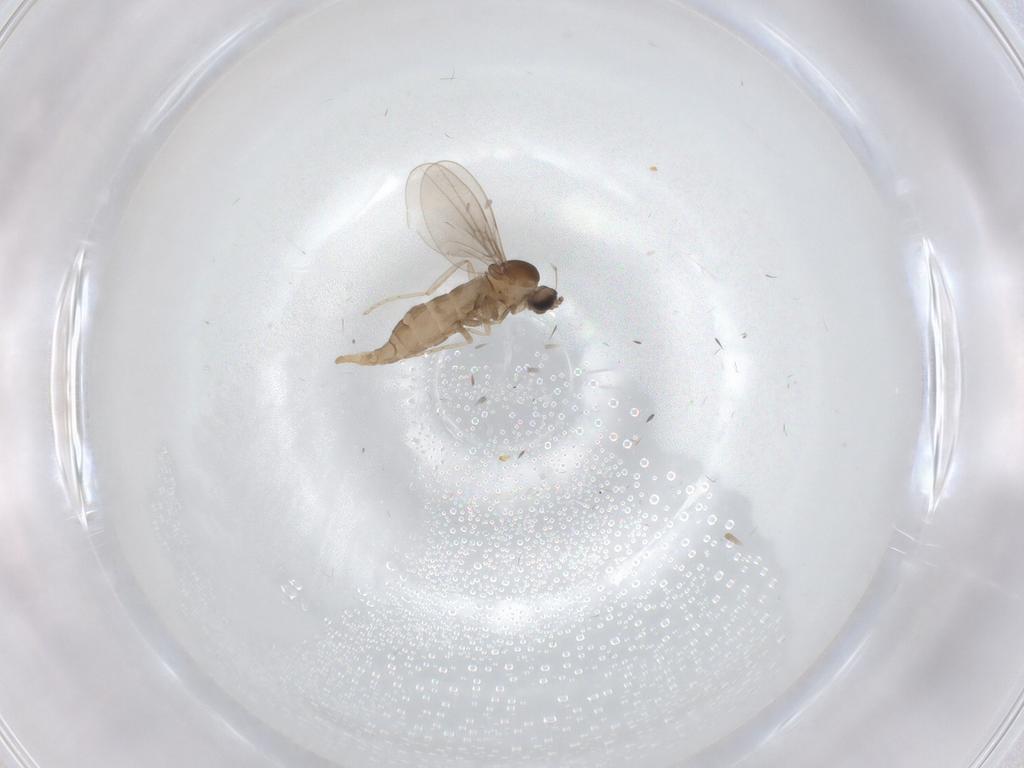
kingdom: Animalia
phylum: Arthropoda
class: Insecta
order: Diptera
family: Cecidomyiidae
